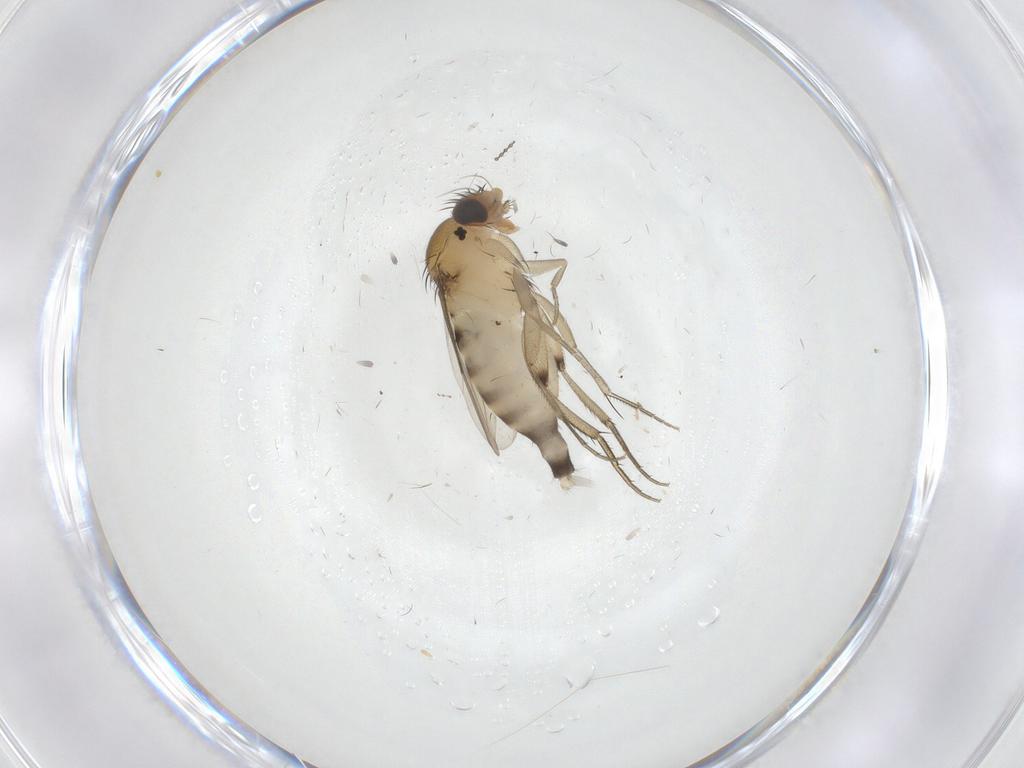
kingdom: Animalia
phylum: Arthropoda
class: Insecta
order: Diptera
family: Phoridae
